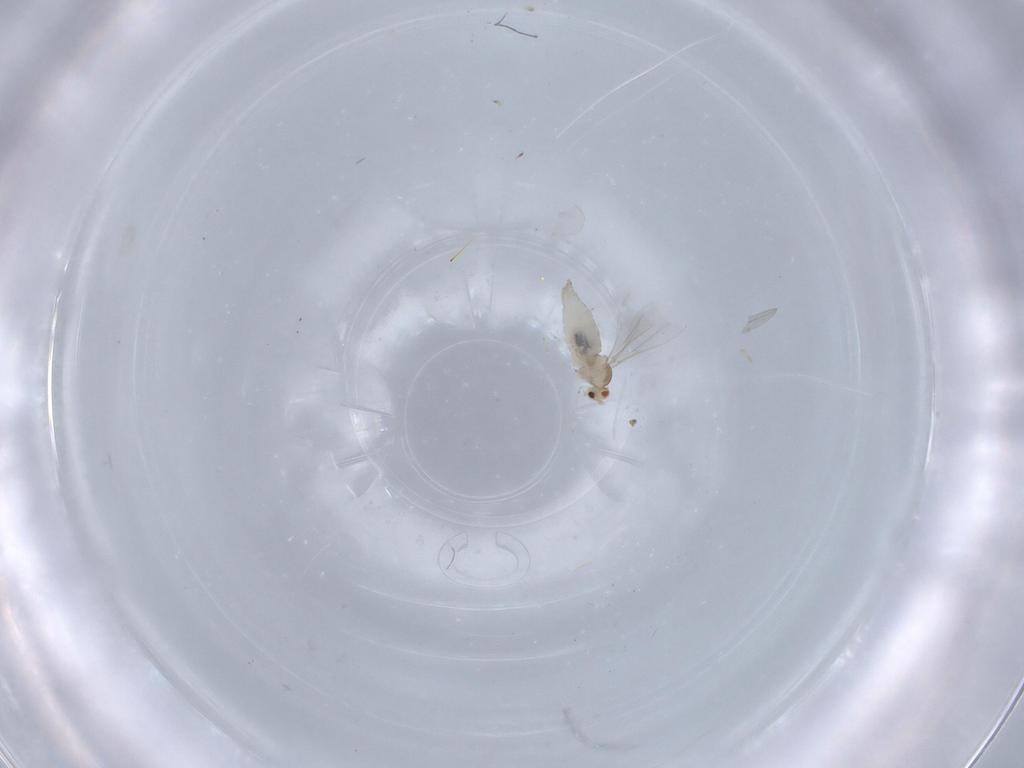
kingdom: Animalia
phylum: Arthropoda
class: Insecta
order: Diptera
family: Cecidomyiidae
